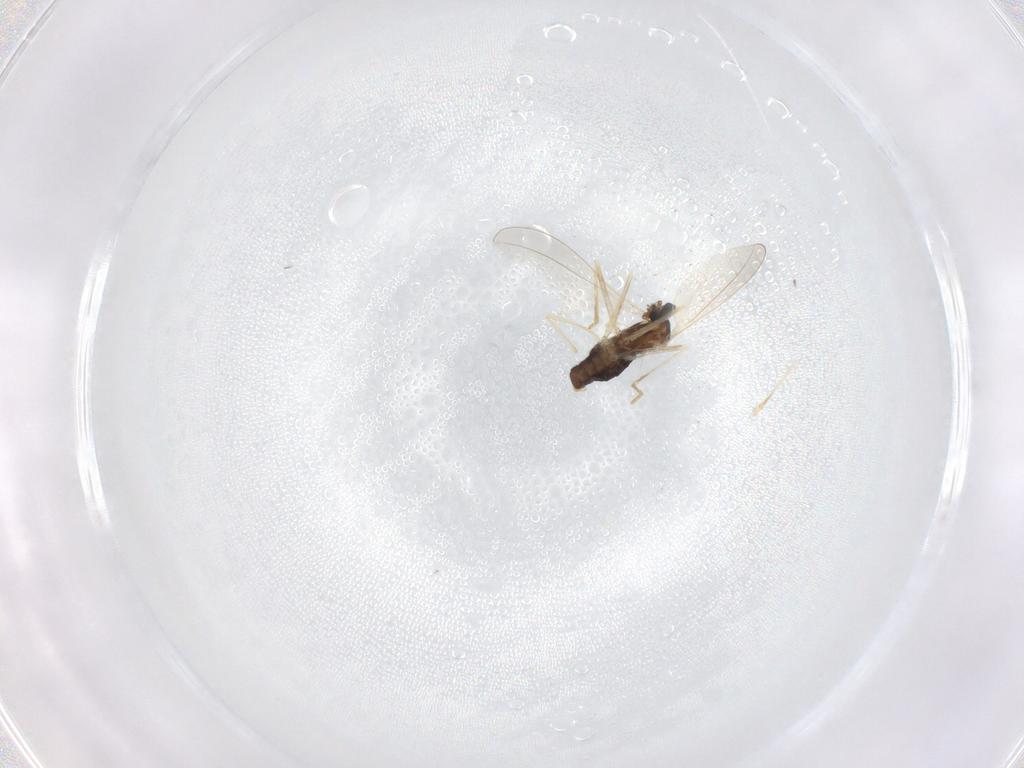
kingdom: Animalia
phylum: Arthropoda
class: Insecta
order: Diptera
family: Cecidomyiidae
